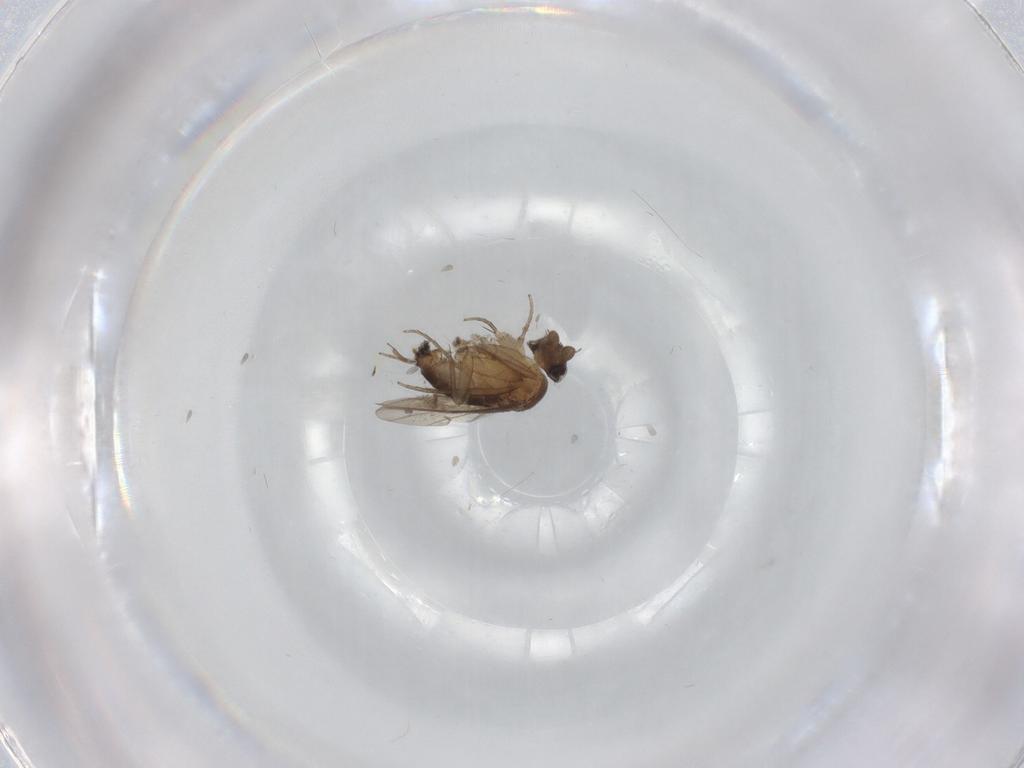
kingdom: Animalia
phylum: Arthropoda
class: Insecta
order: Diptera
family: Phoridae
